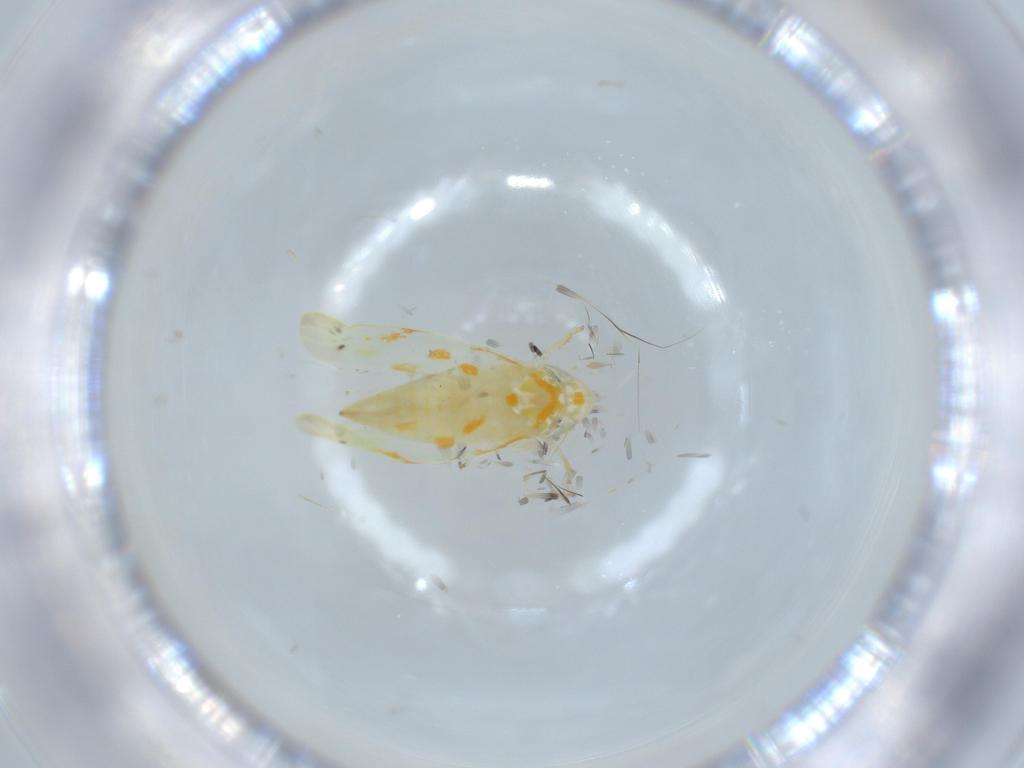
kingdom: Animalia
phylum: Arthropoda
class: Insecta
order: Hemiptera
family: Cicadellidae
